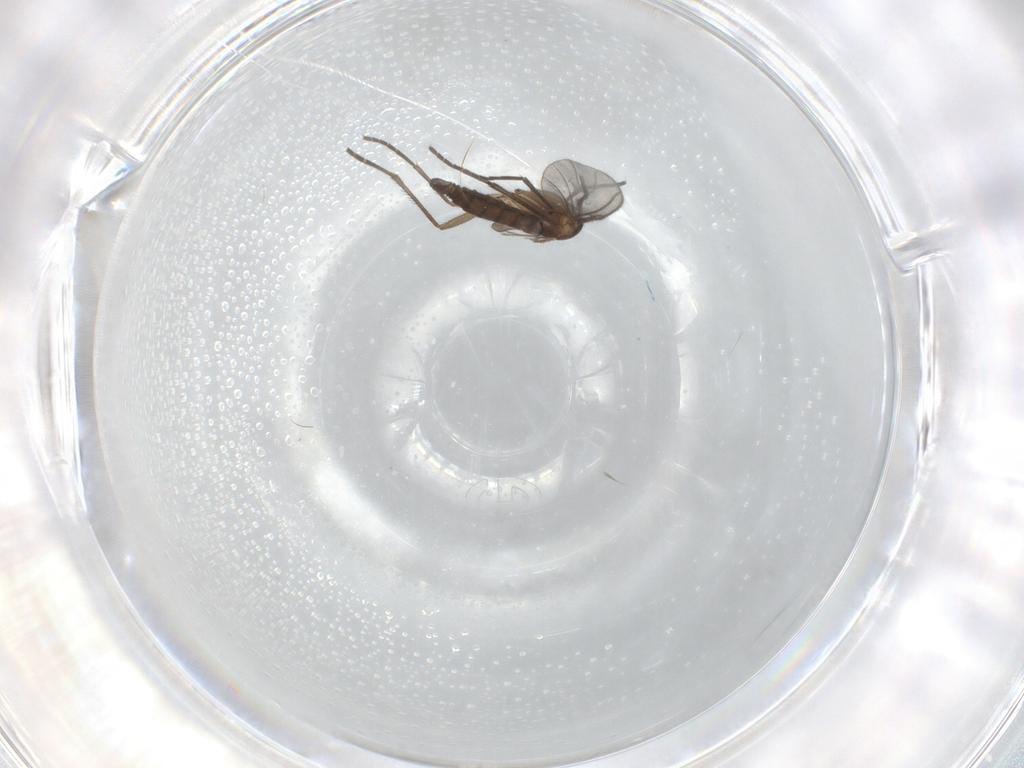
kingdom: Animalia
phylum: Arthropoda
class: Insecta
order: Diptera
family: Sciaridae
